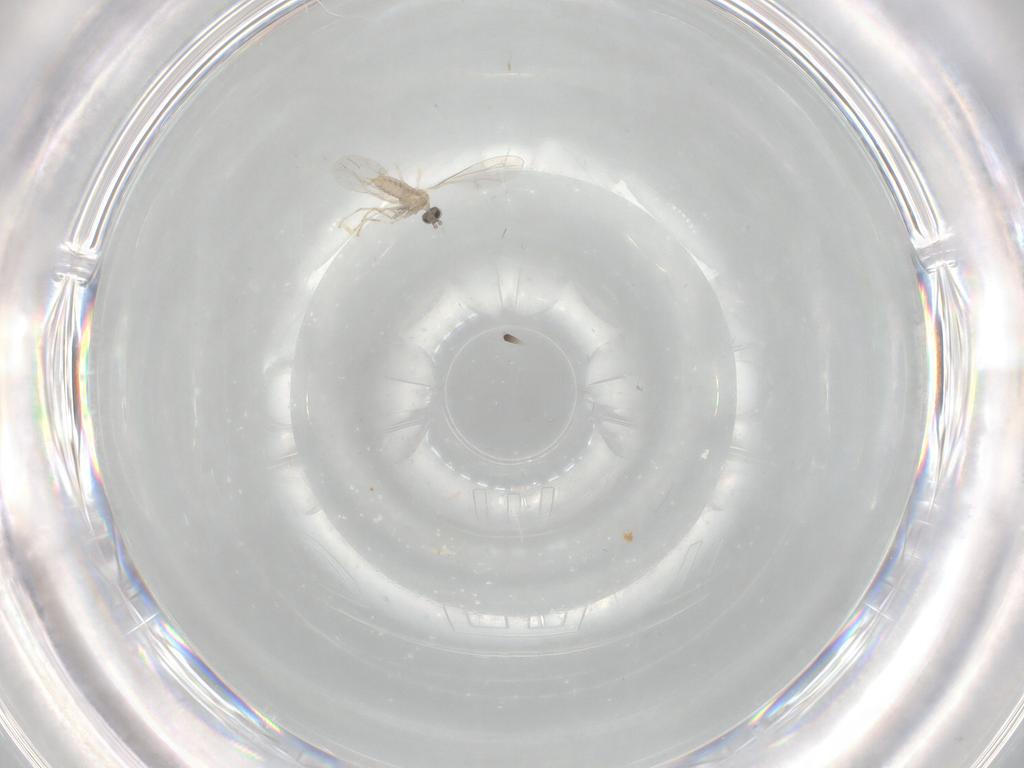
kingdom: Animalia
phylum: Arthropoda
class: Insecta
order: Diptera
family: Cecidomyiidae
